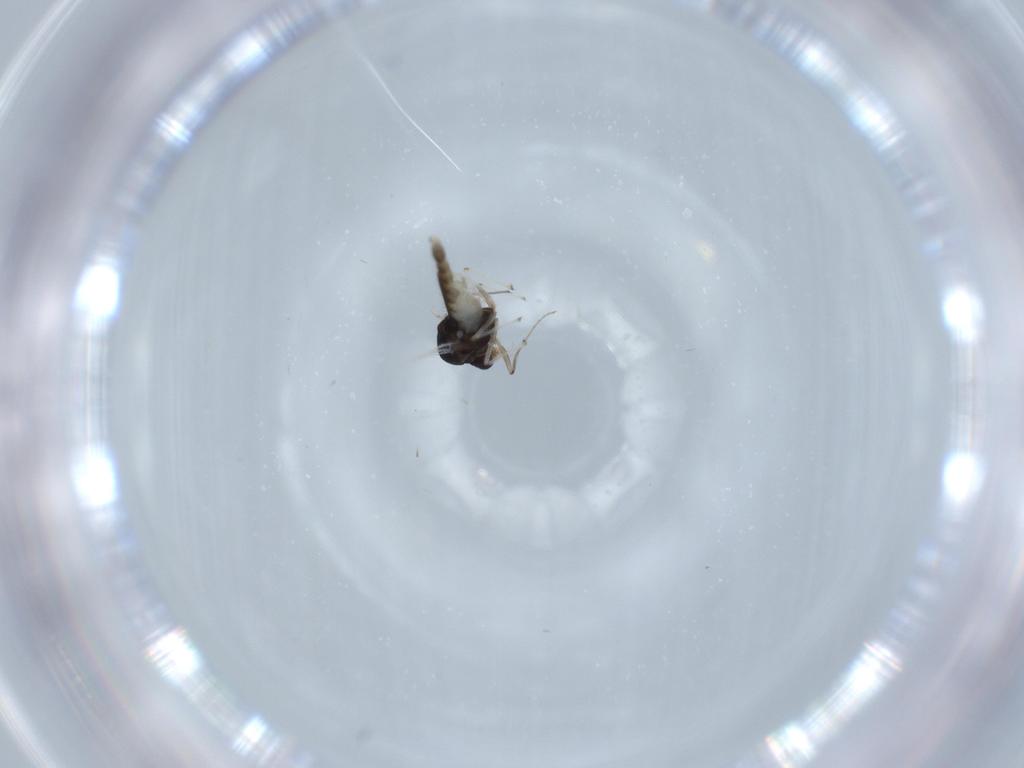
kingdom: Animalia
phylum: Arthropoda
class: Insecta
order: Diptera
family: Chironomidae
